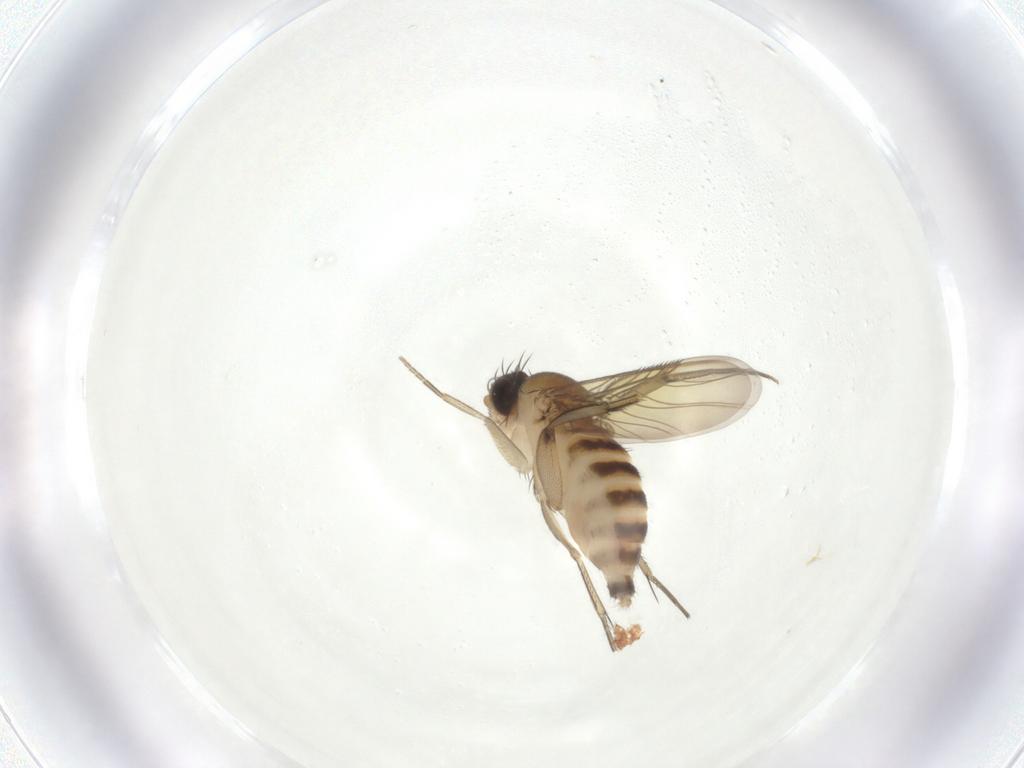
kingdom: Animalia
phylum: Arthropoda
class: Insecta
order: Diptera
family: Phoridae
